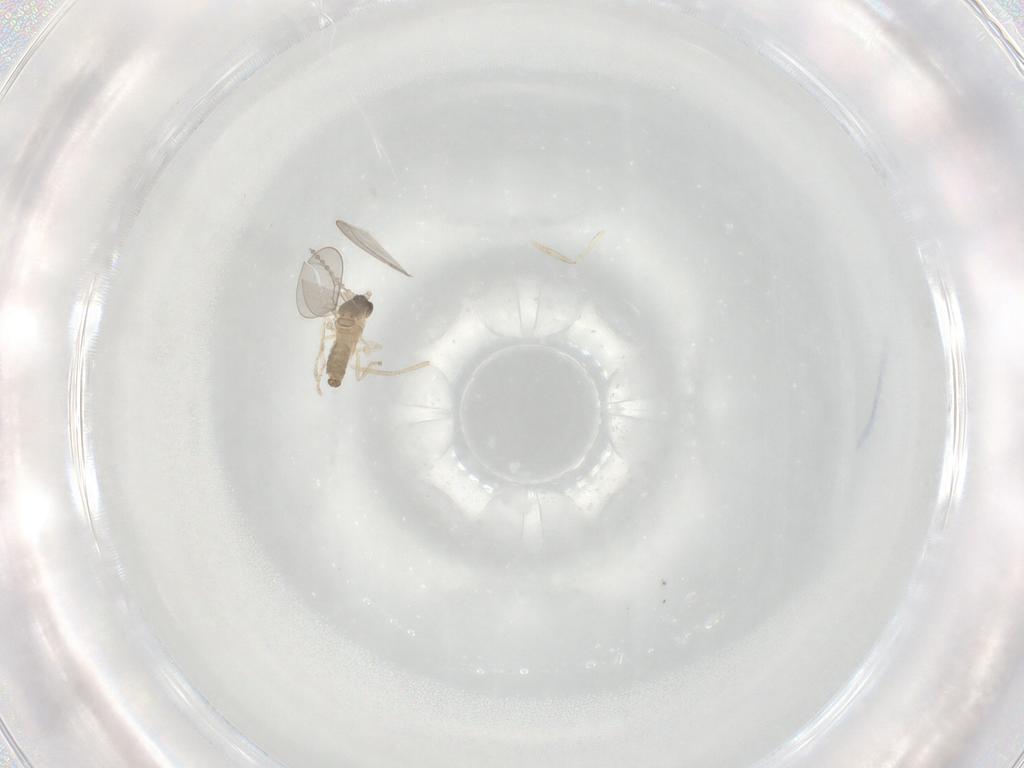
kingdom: Animalia
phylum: Arthropoda
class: Insecta
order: Diptera
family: Cecidomyiidae
